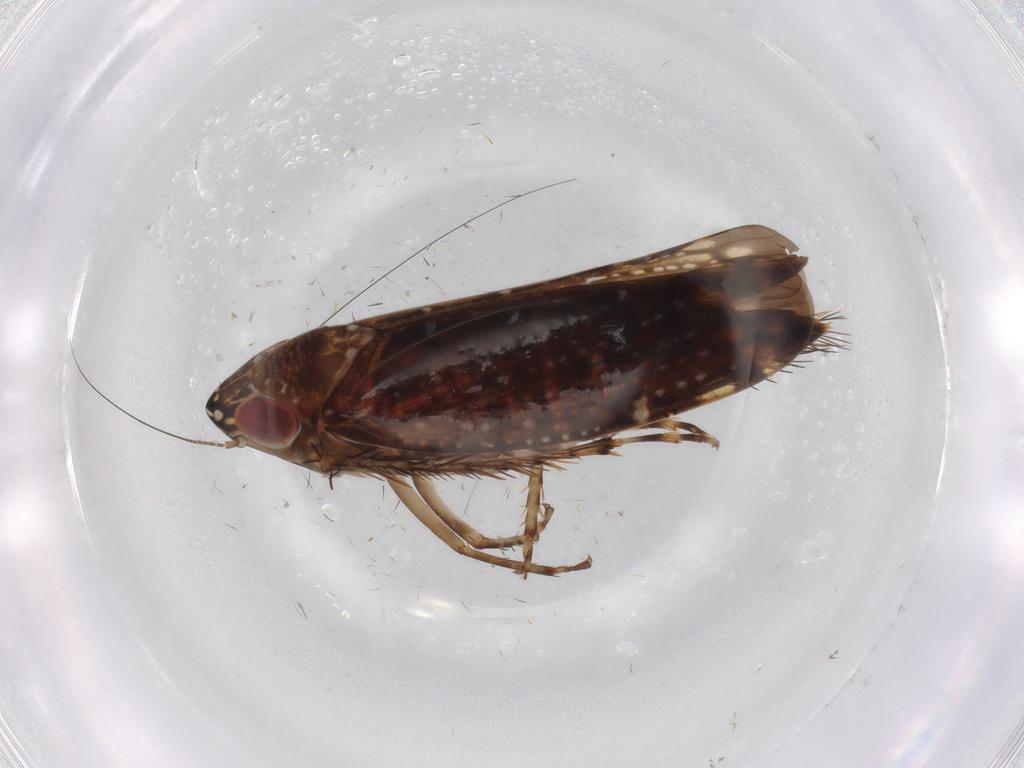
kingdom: Animalia
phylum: Arthropoda
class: Insecta
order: Hemiptera
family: Cicadellidae
